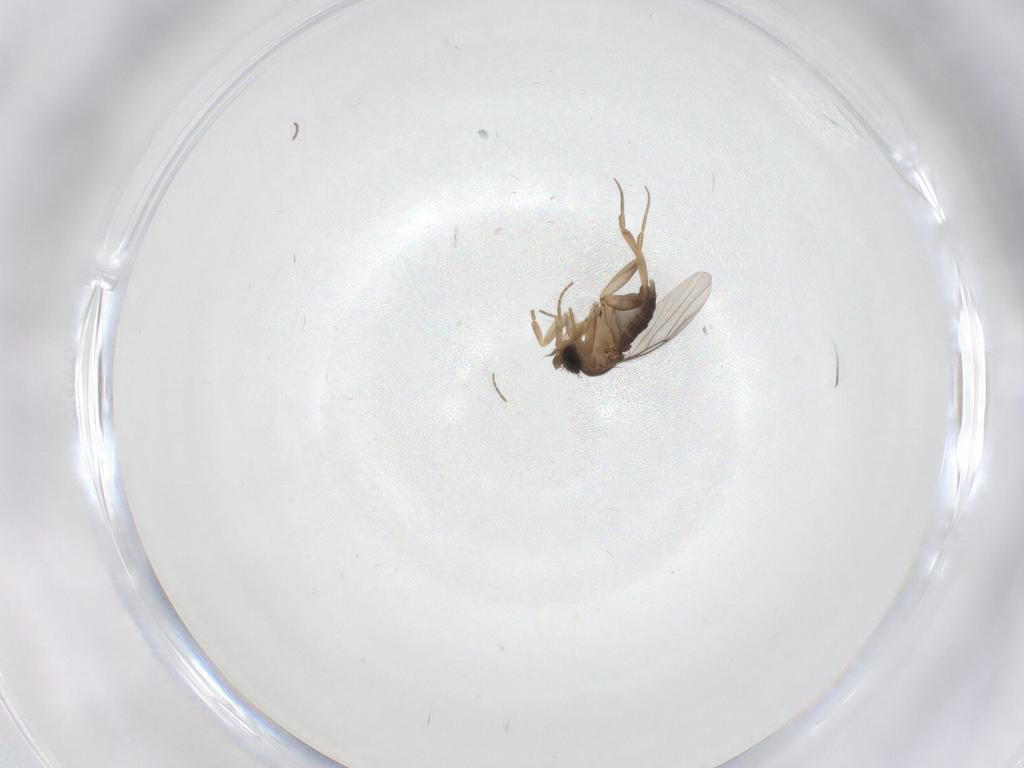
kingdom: Animalia
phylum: Arthropoda
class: Insecta
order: Diptera
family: Phoridae
